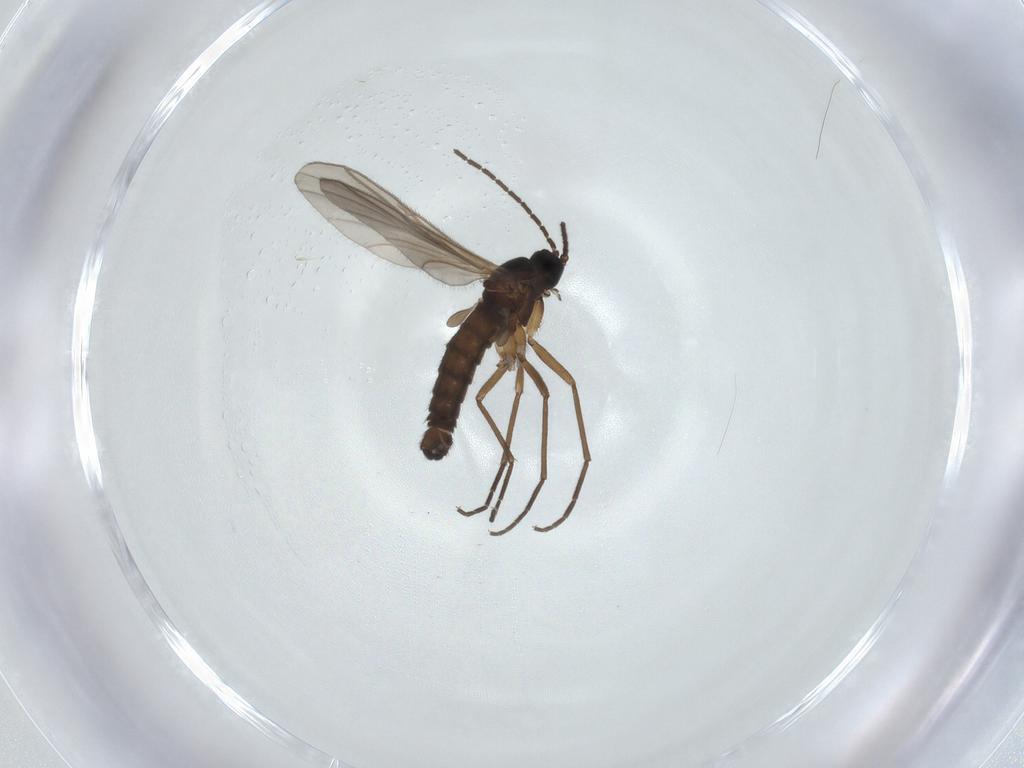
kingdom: Animalia
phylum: Arthropoda
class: Insecta
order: Diptera
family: Sciaridae
